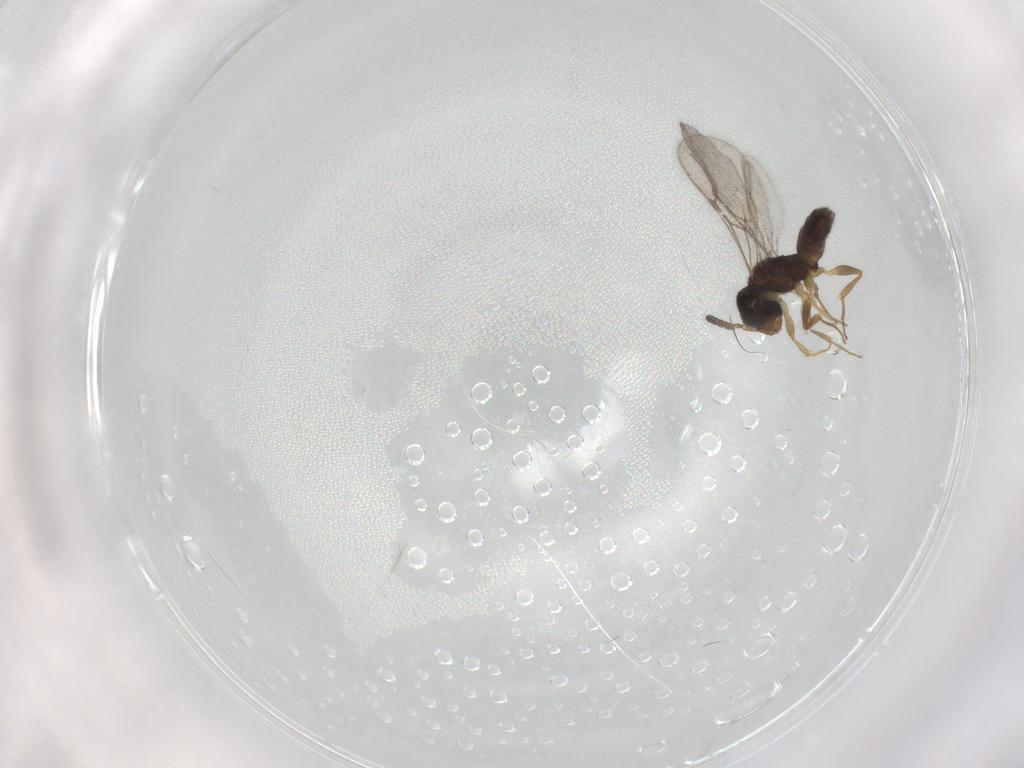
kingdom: Animalia
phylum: Arthropoda
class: Insecta
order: Hymenoptera
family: Bethylidae
